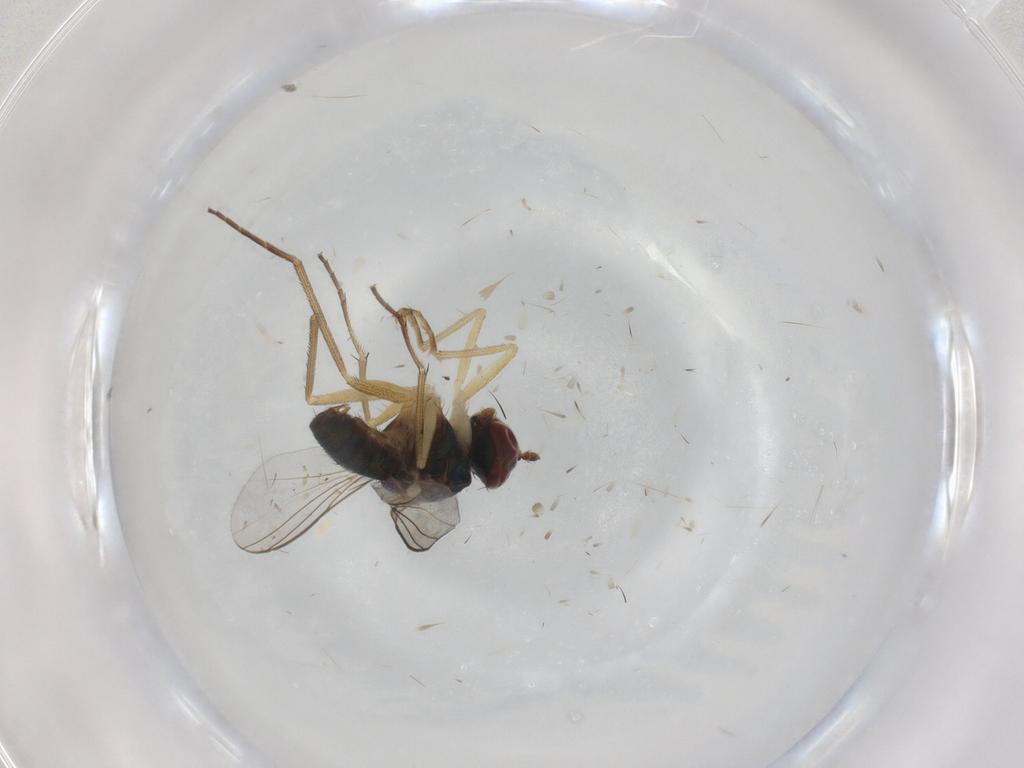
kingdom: Animalia
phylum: Arthropoda
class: Insecta
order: Diptera
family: Dolichopodidae
